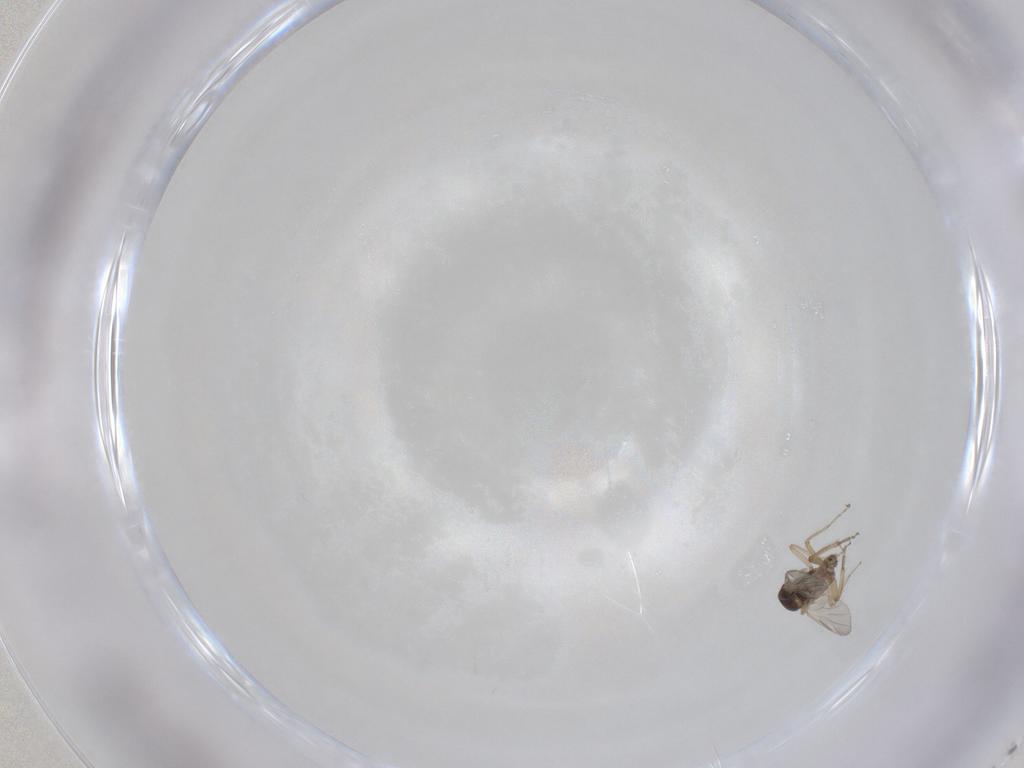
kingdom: Animalia
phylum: Arthropoda
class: Insecta
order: Diptera
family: Ceratopogonidae
